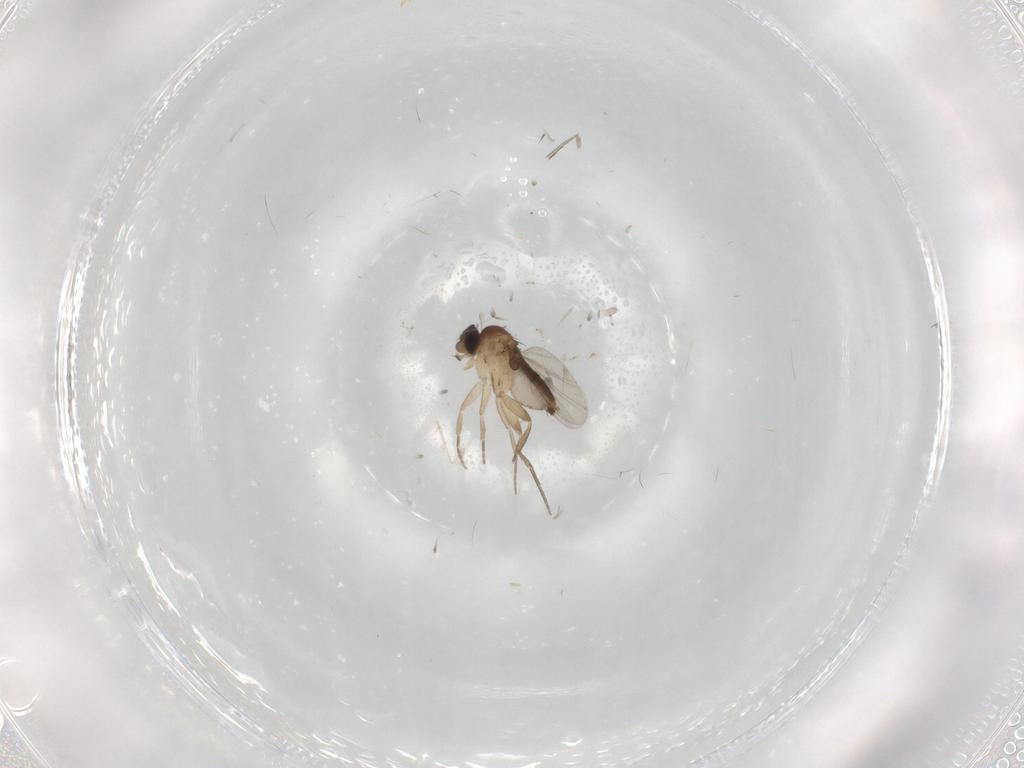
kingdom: Animalia
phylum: Arthropoda
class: Insecta
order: Diptera
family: Phoridae
